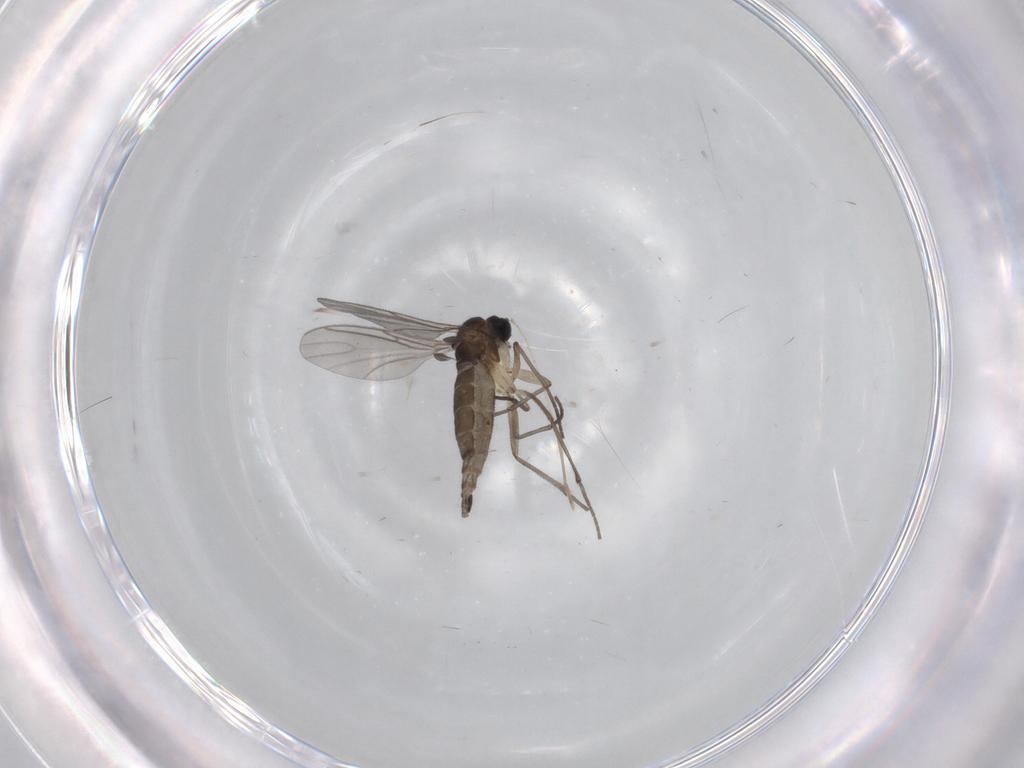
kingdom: Animalia
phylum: Arthropoda
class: Insecta
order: Diptera
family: Sciaridae
